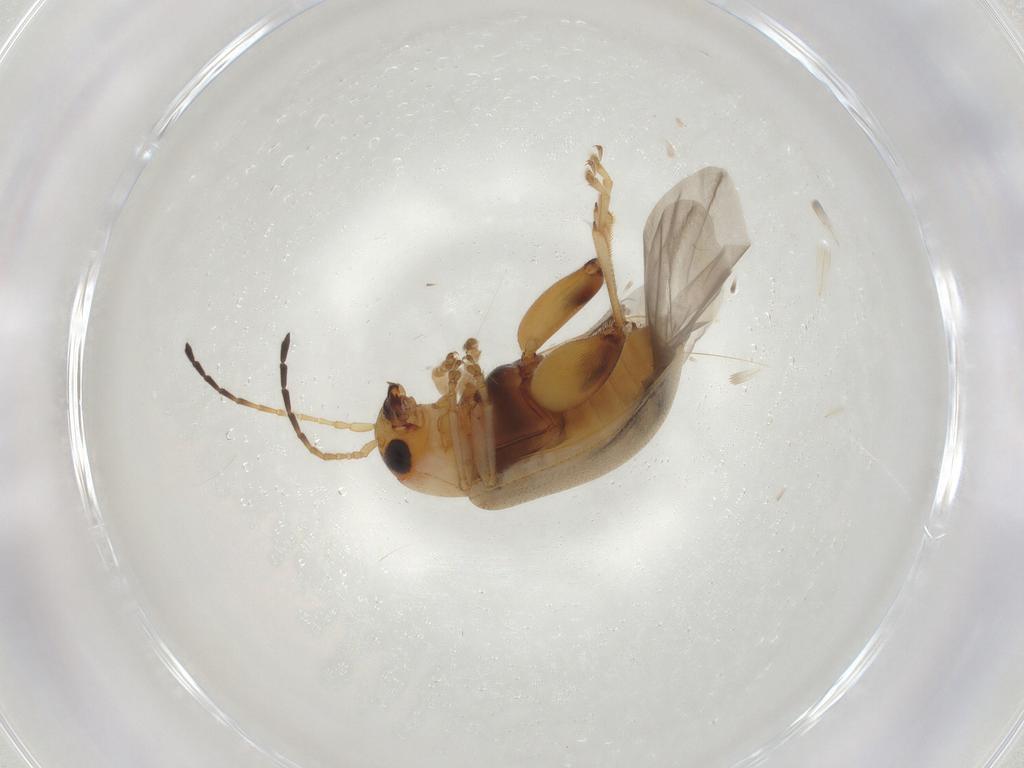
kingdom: Animalia
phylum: Arthropoda
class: Insecta
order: Coleoptera
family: Chrysomelidae
